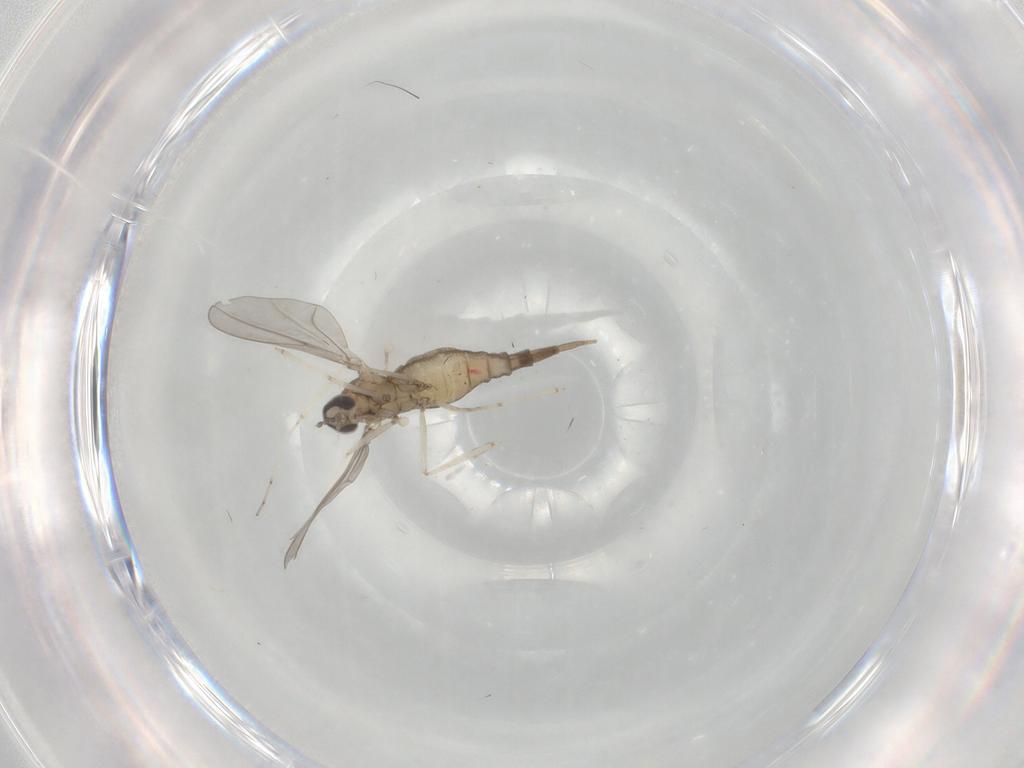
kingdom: Animalia
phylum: Arthropoda
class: Insecta
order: Diptera
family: Cecidomyiidae
